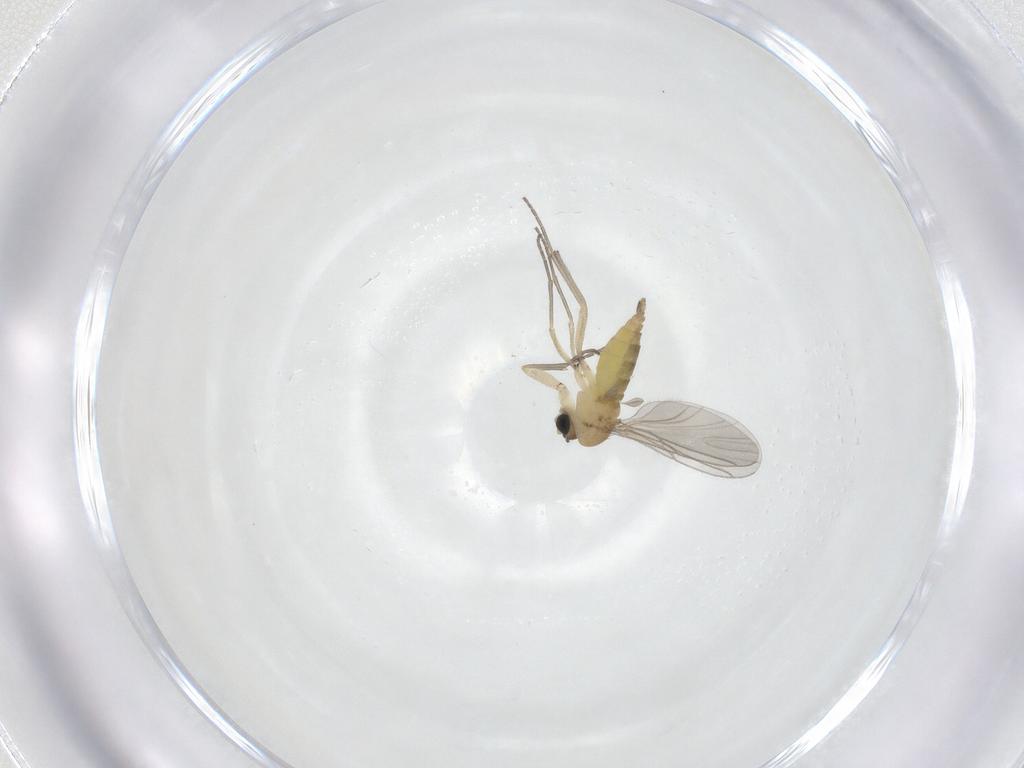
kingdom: Animalia
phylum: Arthropoda
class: Insecta
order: Diptera
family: Sciaridae
